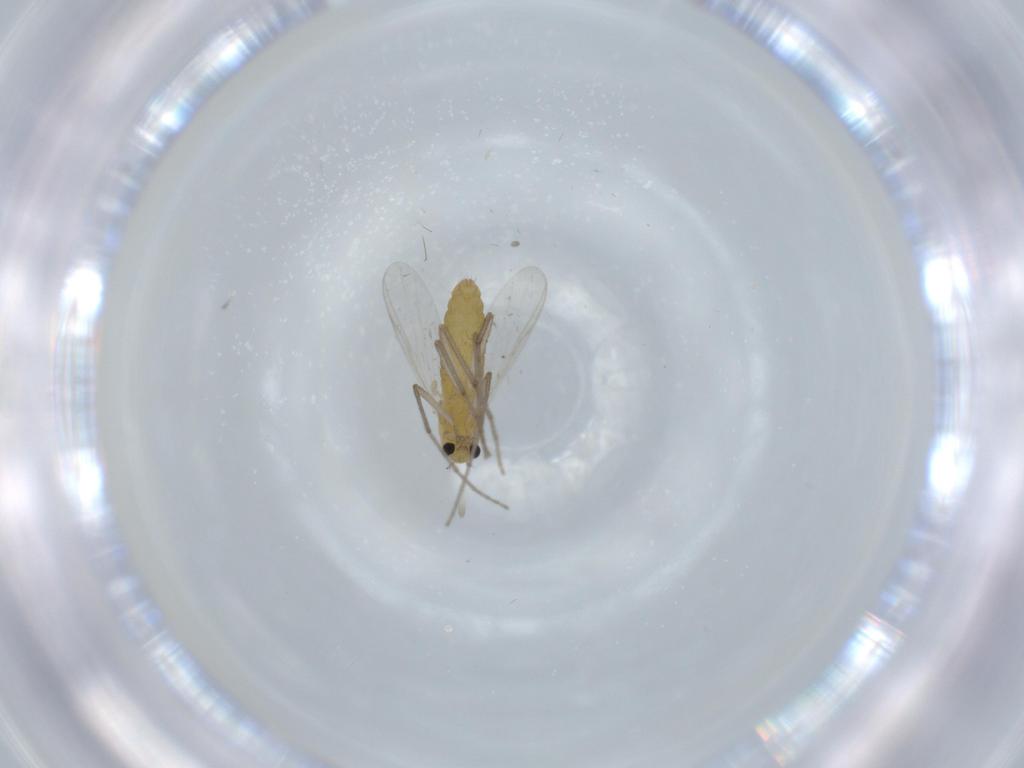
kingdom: Animalia
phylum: Arthropoda
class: Insecta
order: Diptera
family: Chironomidae
